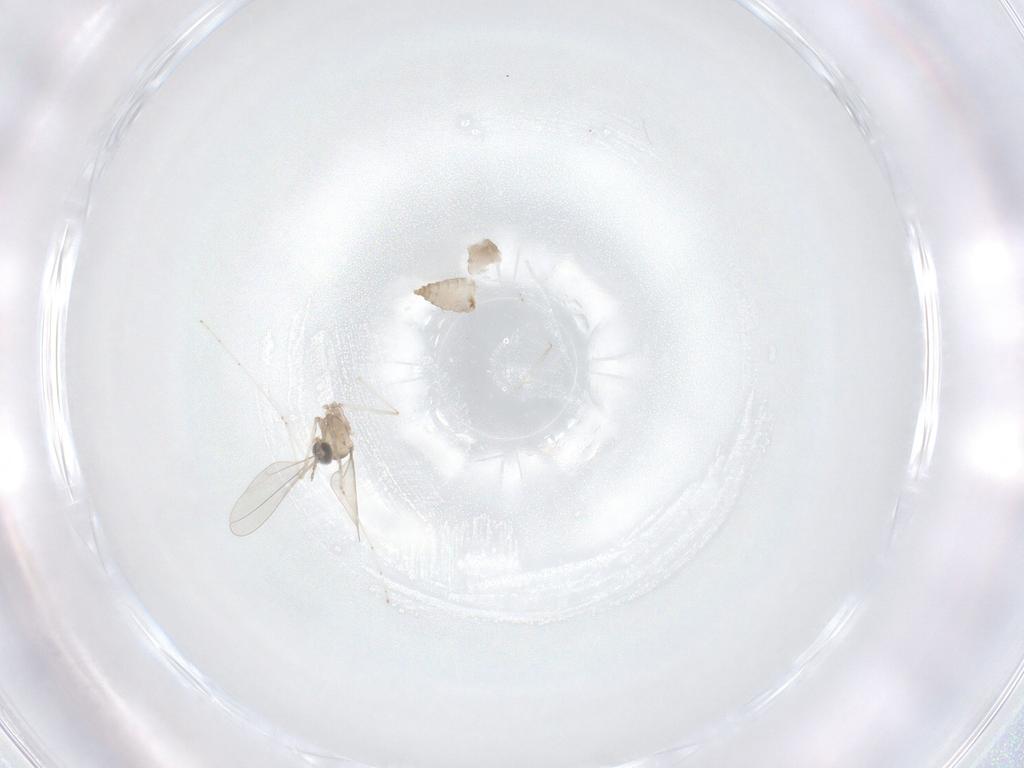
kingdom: Animalia
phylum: Arthropoda
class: Insecta
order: Diptera
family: Cecidomyiidae
